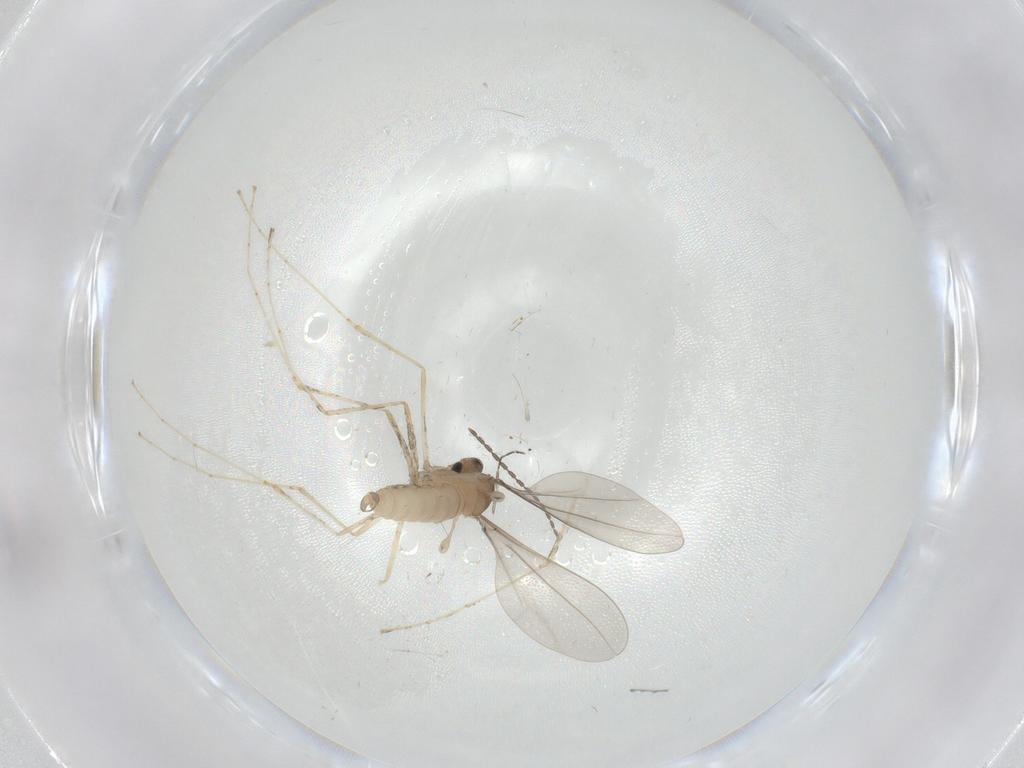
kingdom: Animalia
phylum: Arthropoda
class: Insecta
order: Diptera
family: Cecidomyiidae
